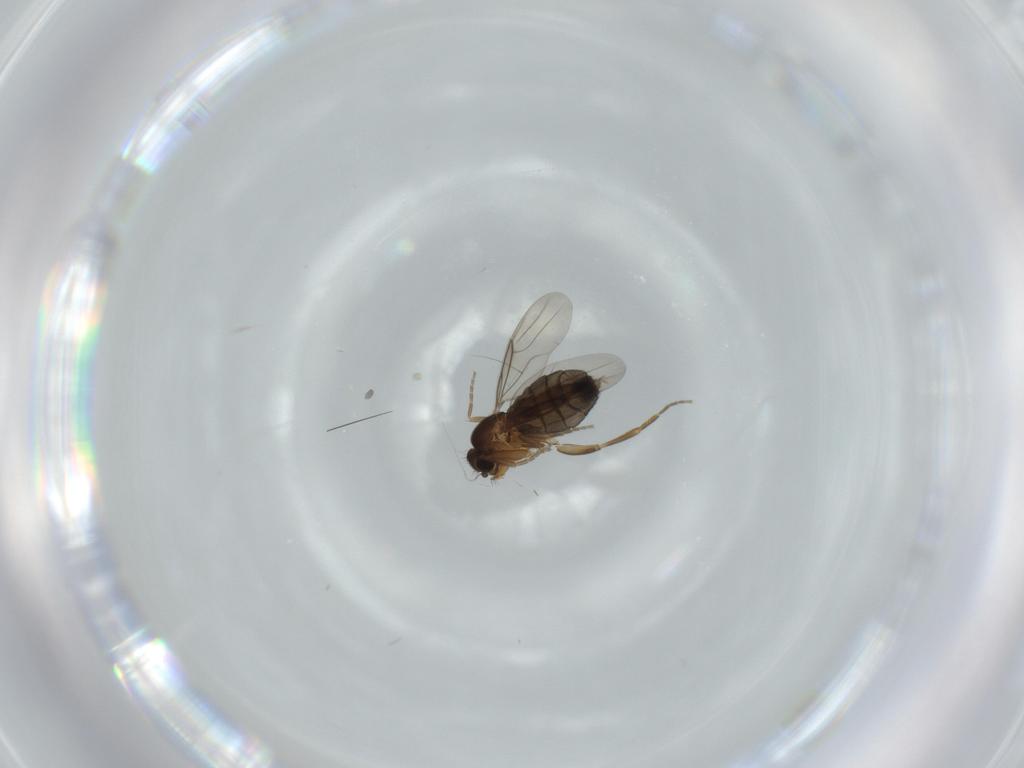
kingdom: Animalia
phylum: Arthropoda
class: Insecta
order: Diptera
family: Phoridae
